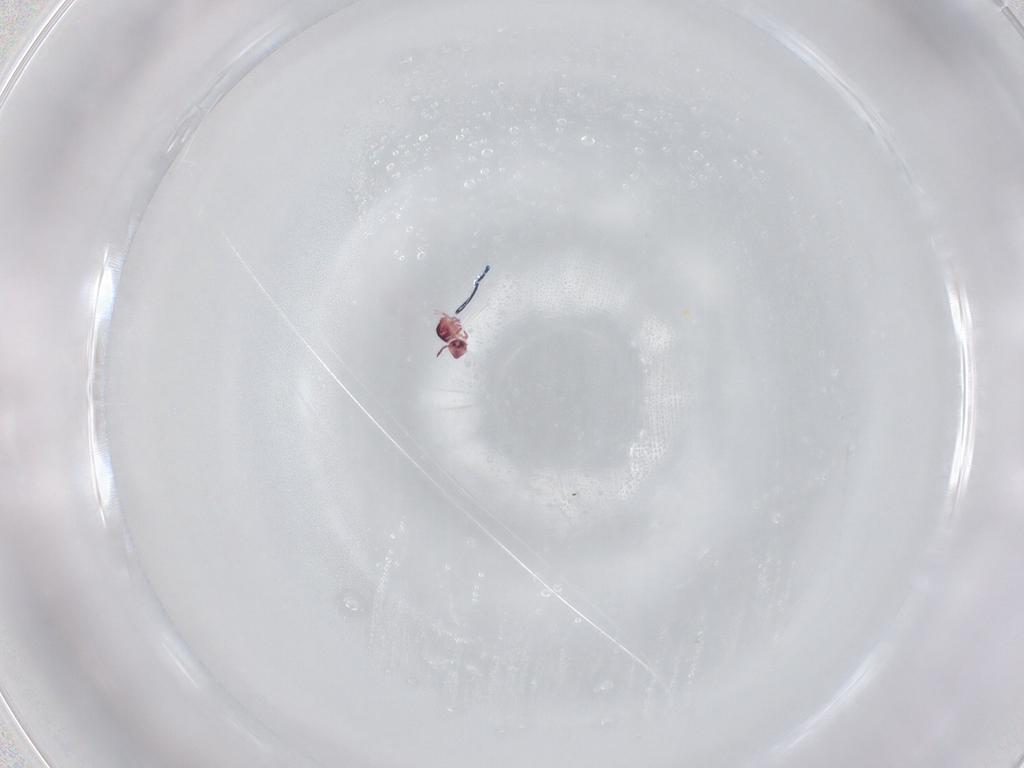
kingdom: Animalia
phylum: Arthropoda
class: Collembola
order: Symphypleona
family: Sminthurididae
